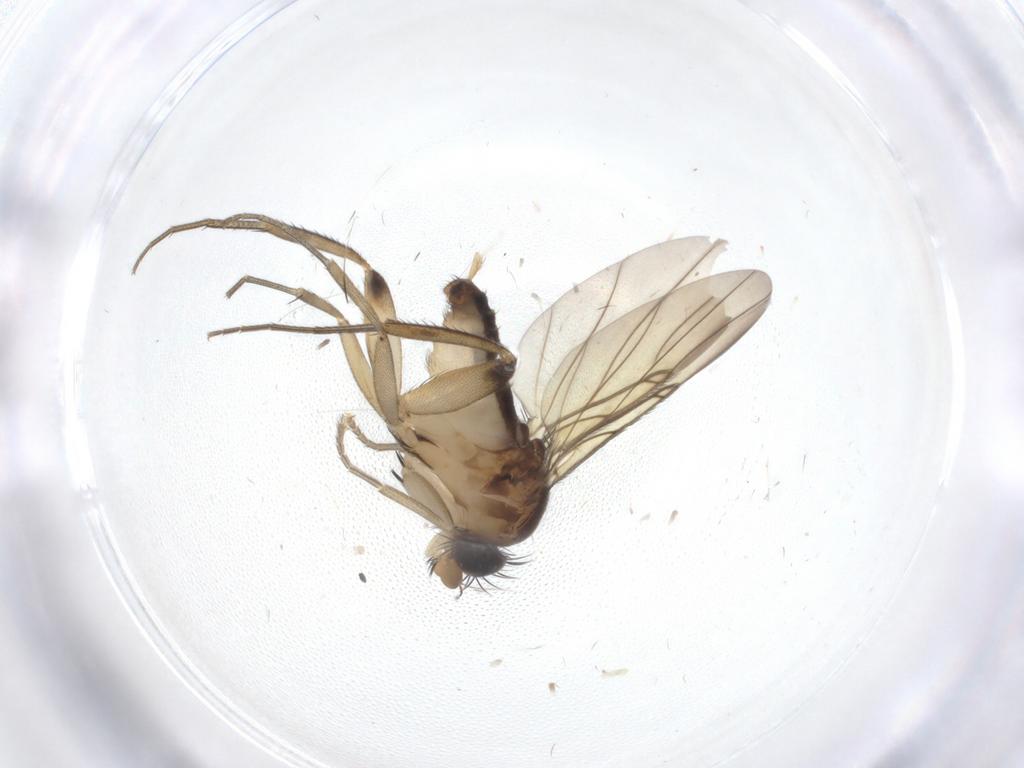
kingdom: Animalia
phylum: Arthropoda
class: Insecta
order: Diptera
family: Phoridae
